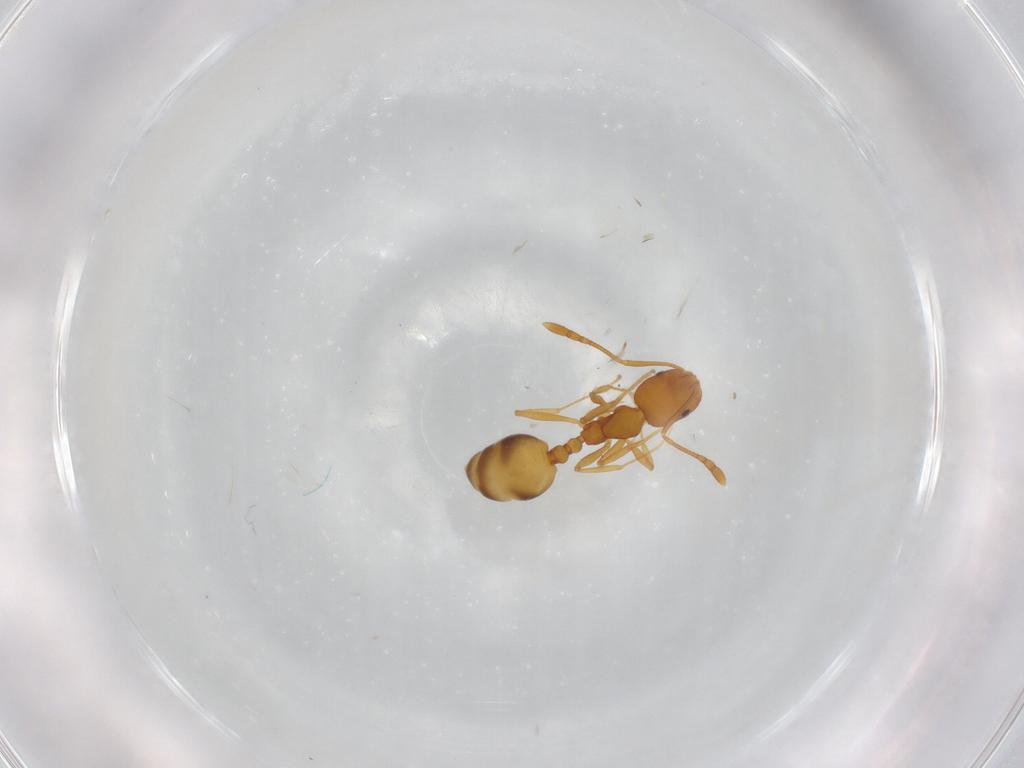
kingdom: Animalia
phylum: Arthropoda
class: Insecta
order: Hymenoptera
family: Formicidae
